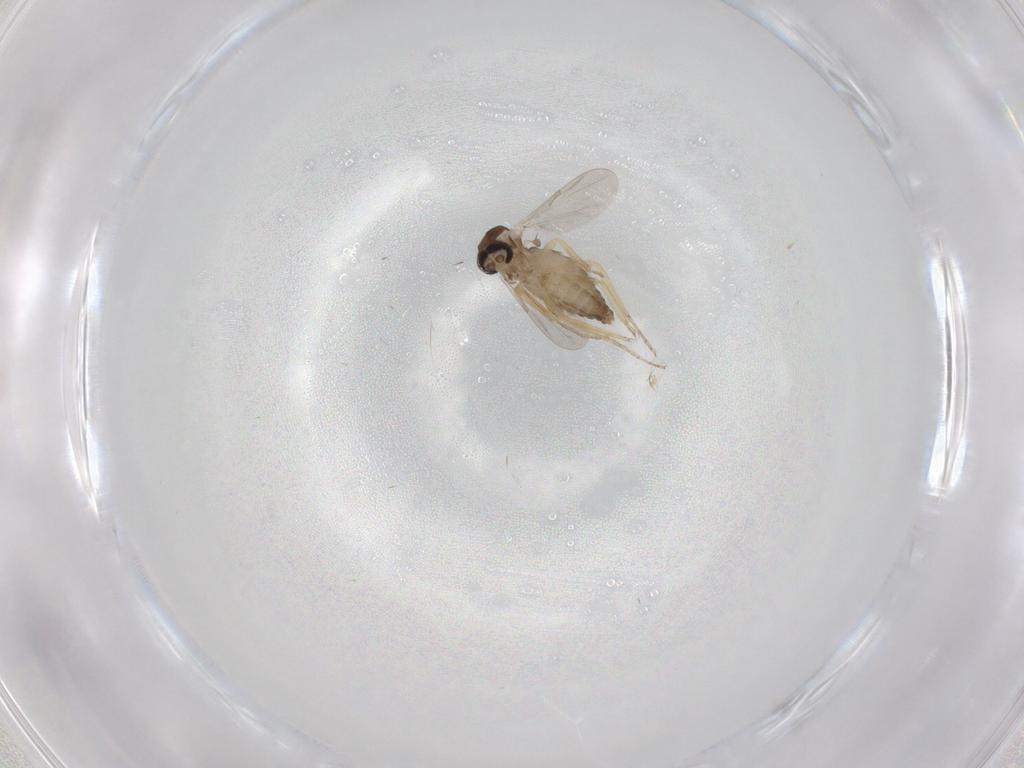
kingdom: Animalia
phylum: Arthropoda
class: Insecta
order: Diptera
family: Ceratopogonidae
